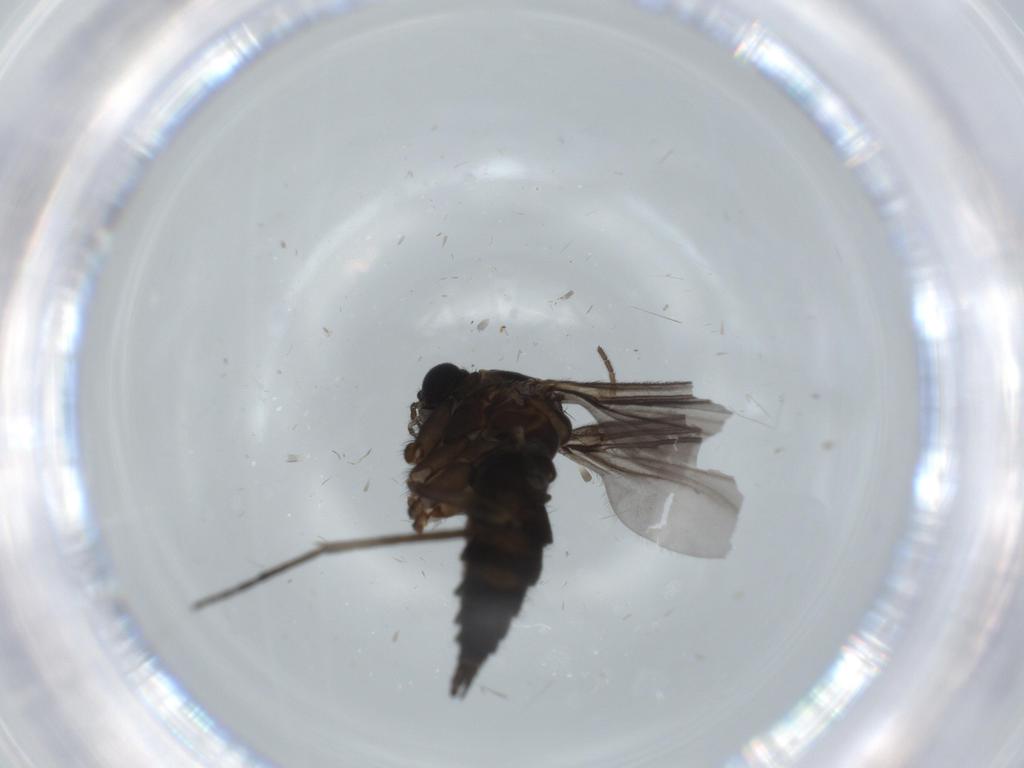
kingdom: Animalia
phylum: Arthropoda
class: Insecta
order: Diptera
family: Sciaridae
